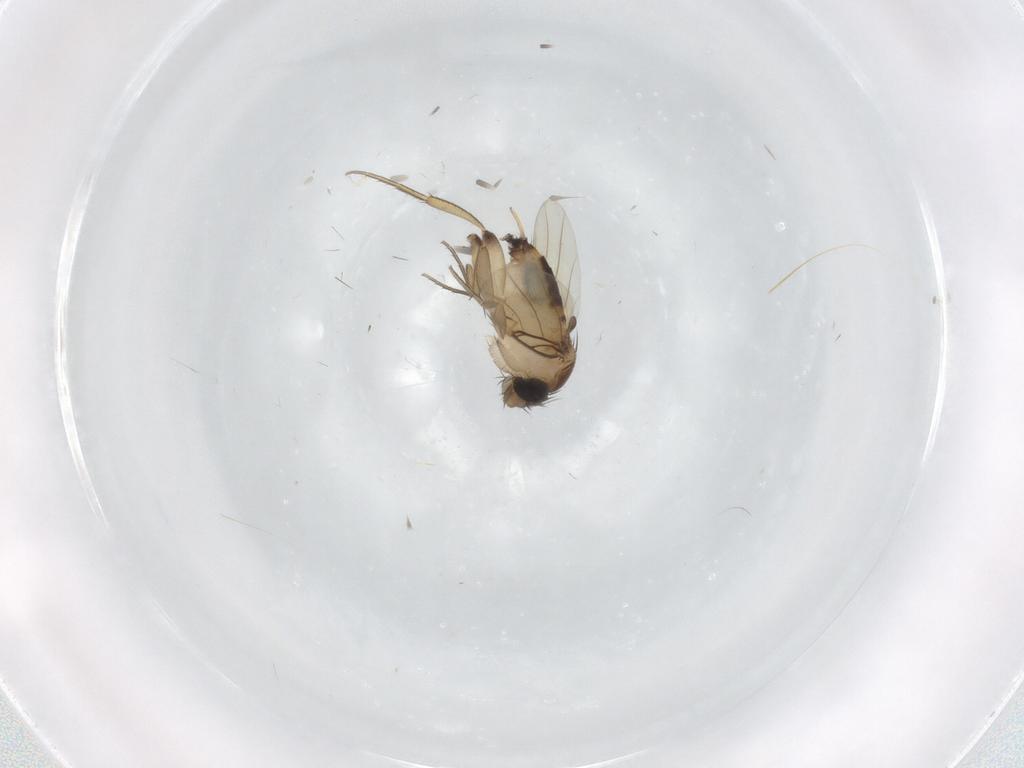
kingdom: Animalia
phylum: Arthropoda
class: Insecta
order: Diptera
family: Phoridae
